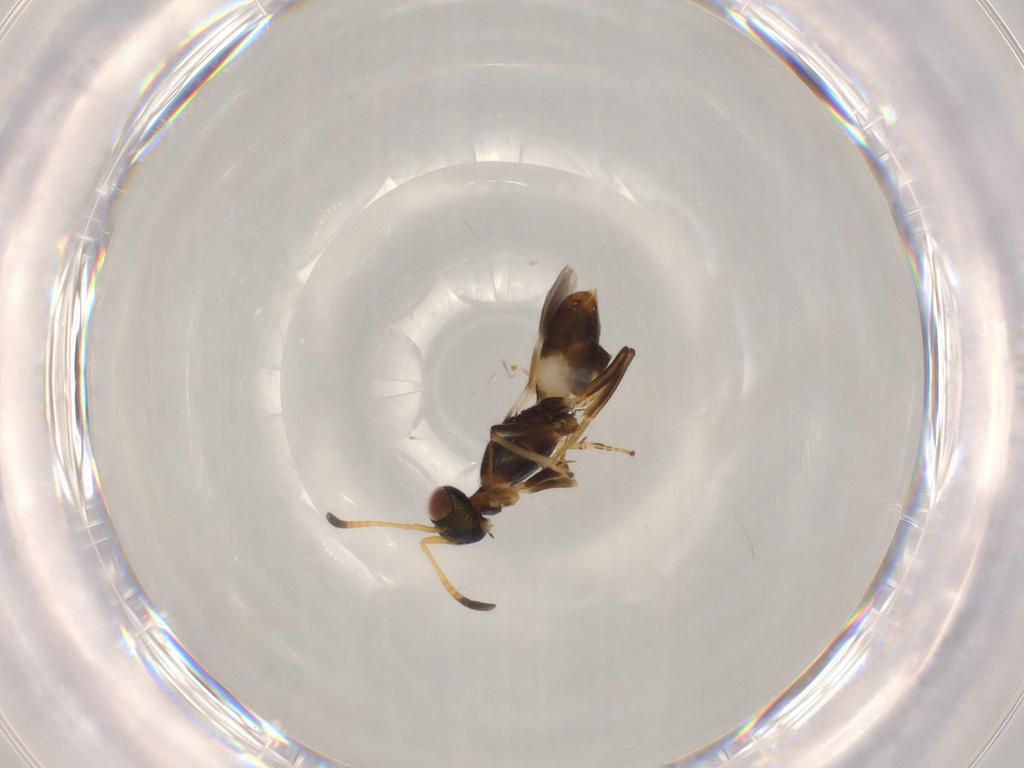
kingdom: Animalia
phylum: Arthropoda
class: Insecta
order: Hymenoptera
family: Eupelmidae
